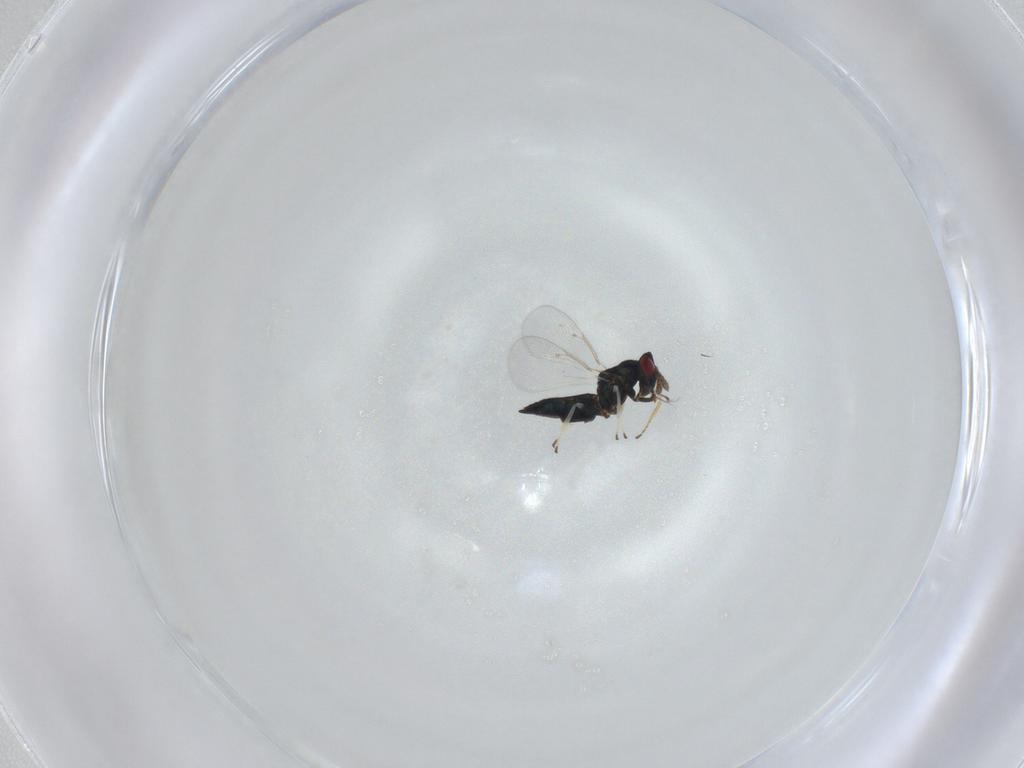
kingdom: Animalia
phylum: Arthropoda
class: Insecta
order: Hymenoptera
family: Eulophidae
